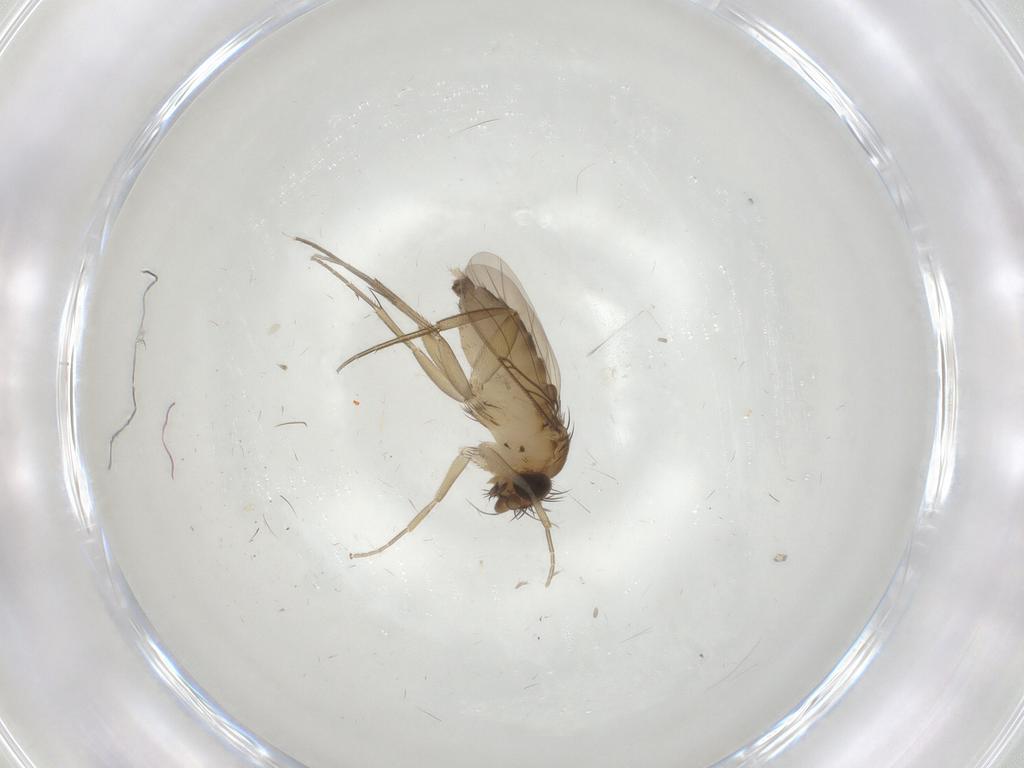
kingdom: Animalia
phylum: Arthropoda
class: Insecta
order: Diptera
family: Phoridae
